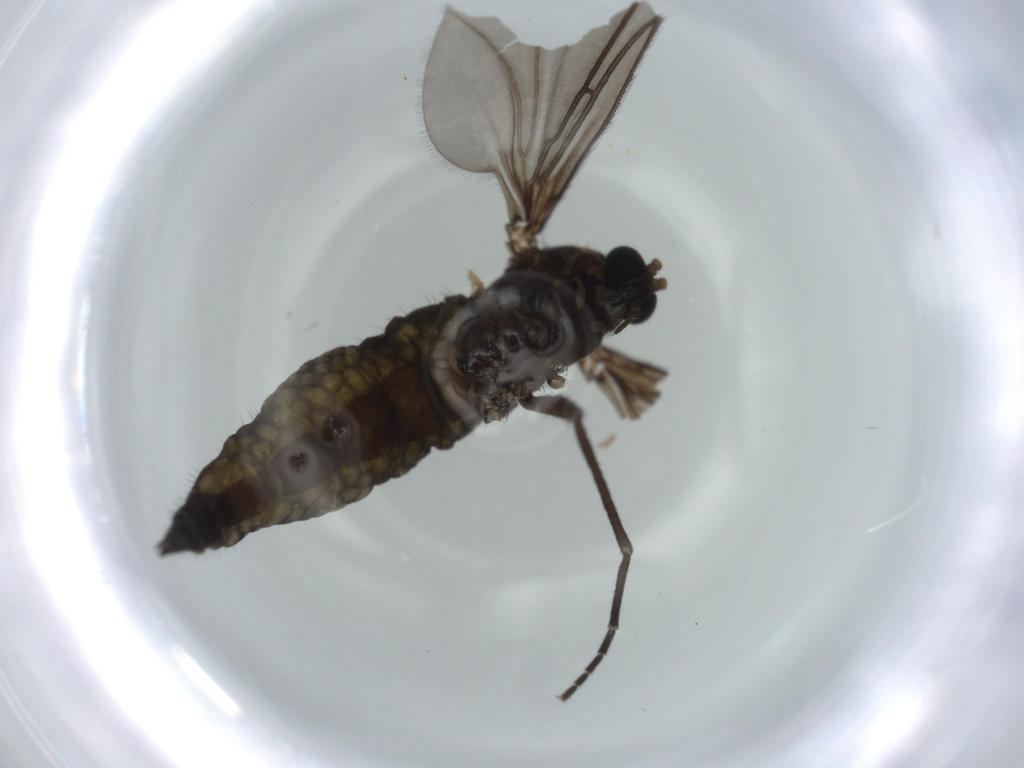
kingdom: Animalia
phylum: Arthropoda
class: Insecta
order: Diptera
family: Sciaridae
